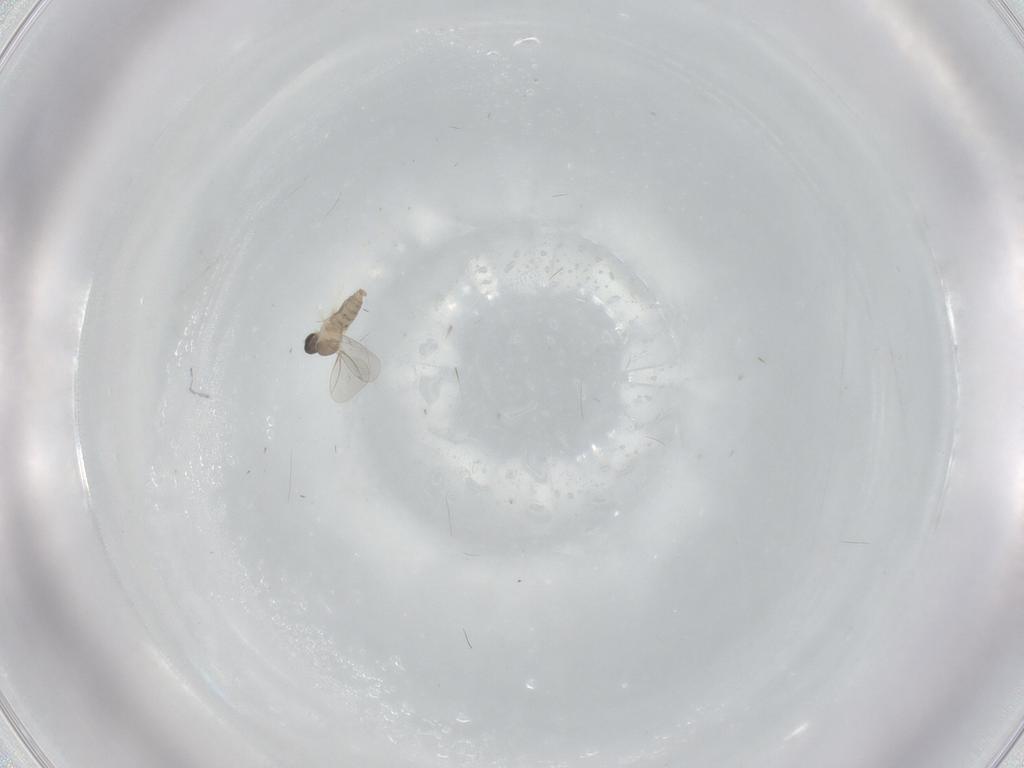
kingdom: Animalia
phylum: Arthropoda
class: Insecta
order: Diptera
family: Cecidomyiidae
